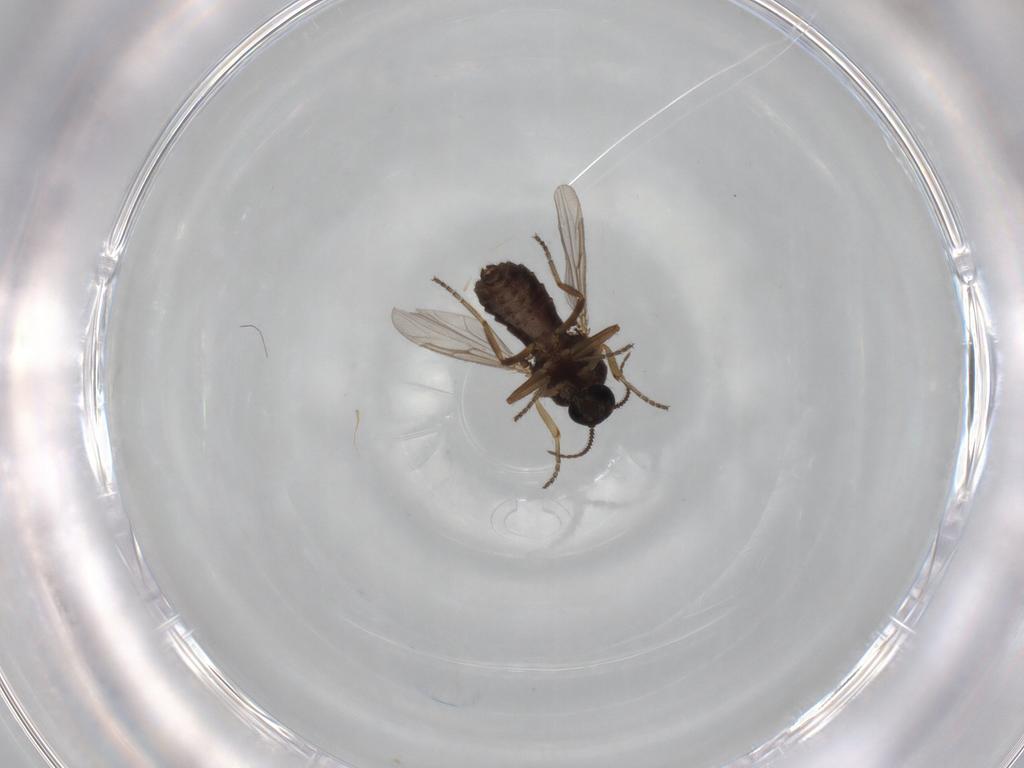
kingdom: Animalia
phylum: Arthropoda
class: Insecta
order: Diptera
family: Ceratopogonidae
